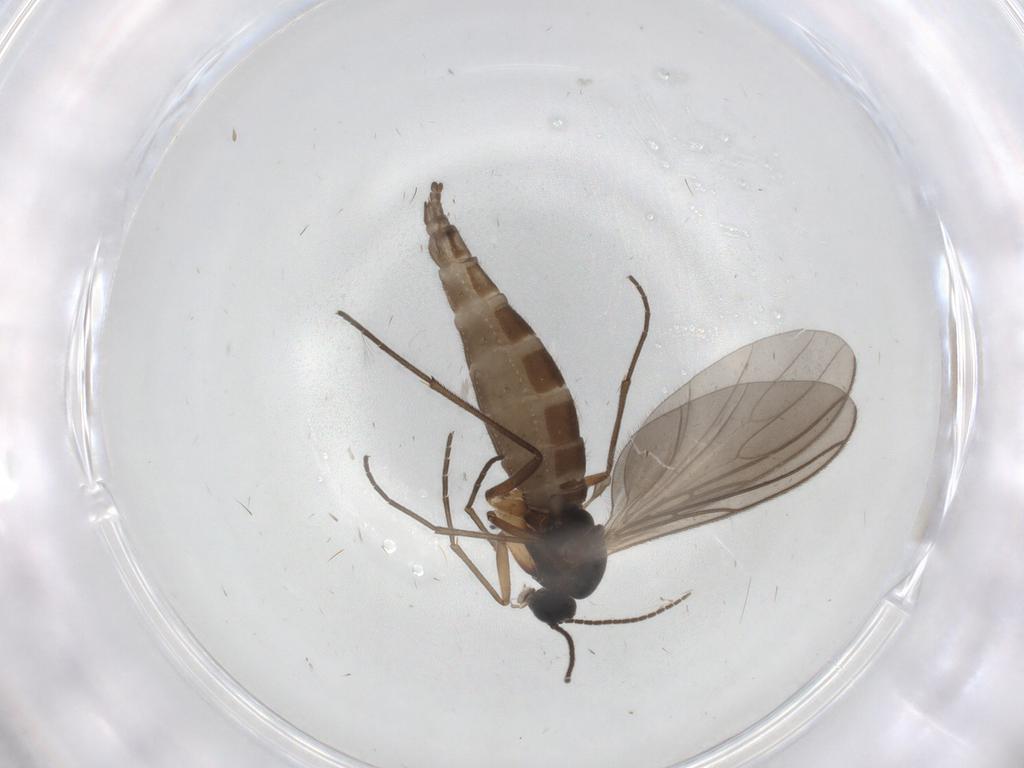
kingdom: Animalia
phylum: Arthropoda
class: Insecta
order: Diptera
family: Sciaridae
